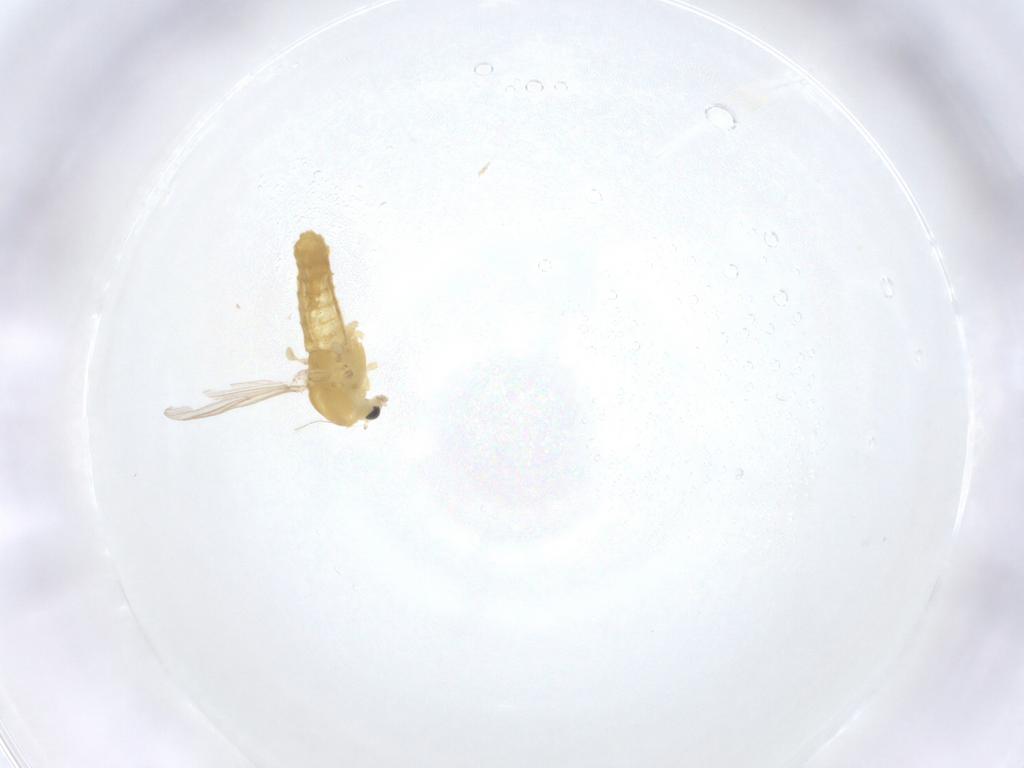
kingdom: Animalia
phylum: Arthropoda
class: Insecta
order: Diptera
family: Chironomidae
